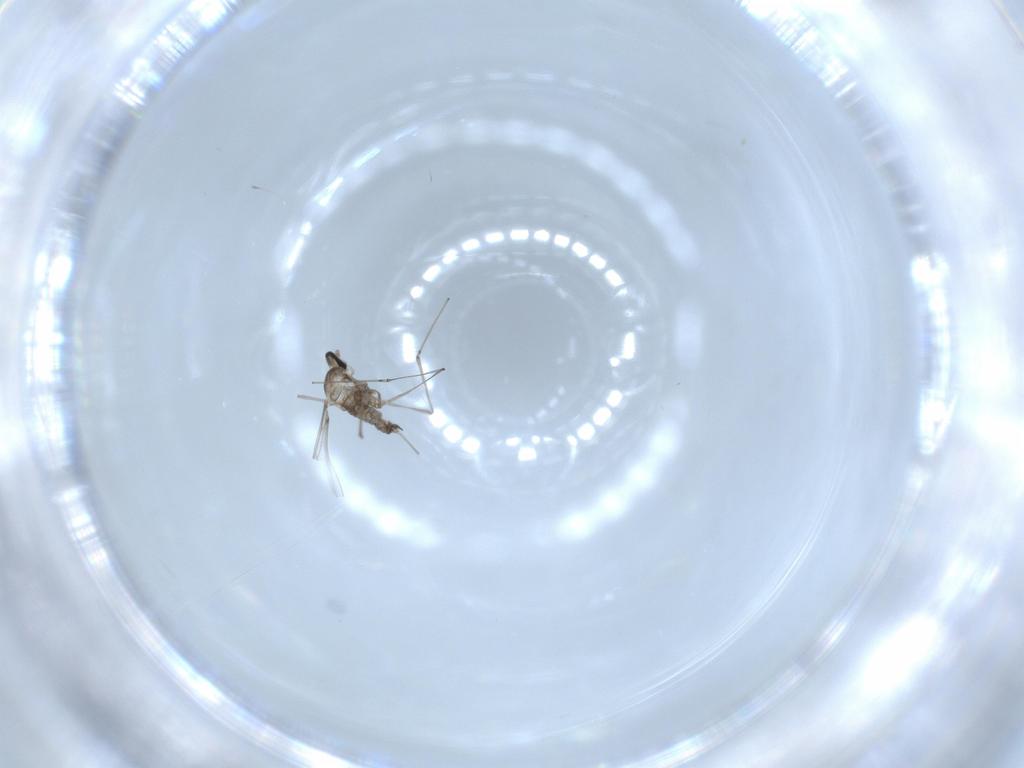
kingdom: Animalia
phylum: Arthropoda
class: Insecta
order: Diptera
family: Cecidomyiidae
